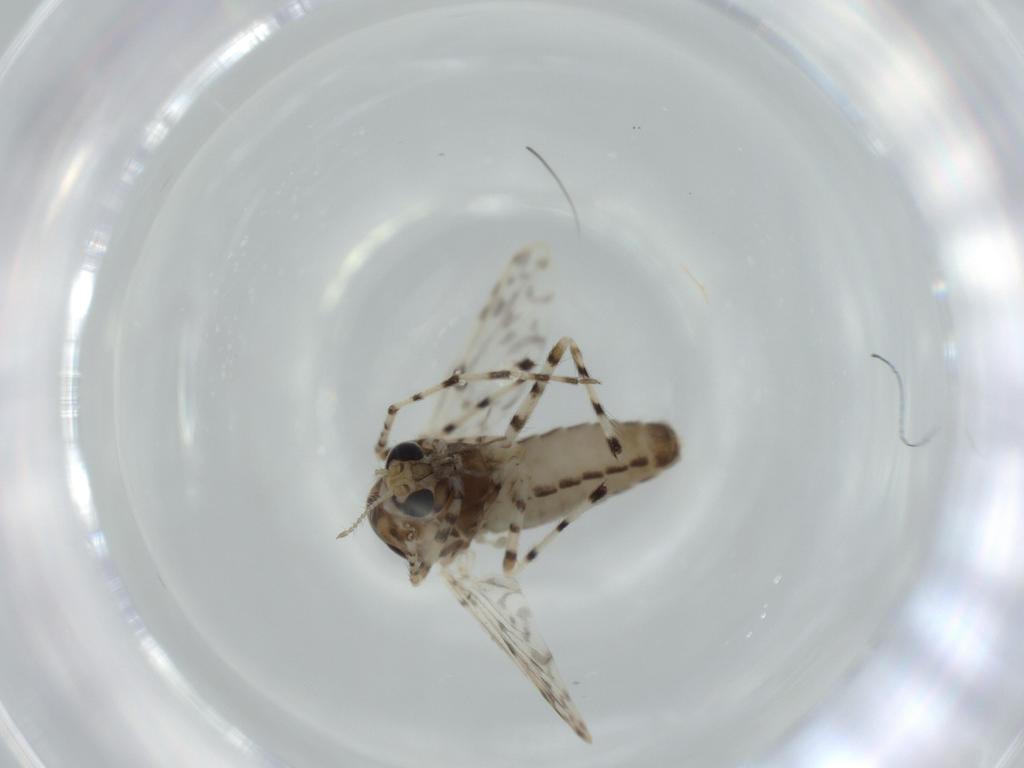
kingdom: Animalia
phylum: Arthropoda
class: Insecta
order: Diptera
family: Chironomidae
